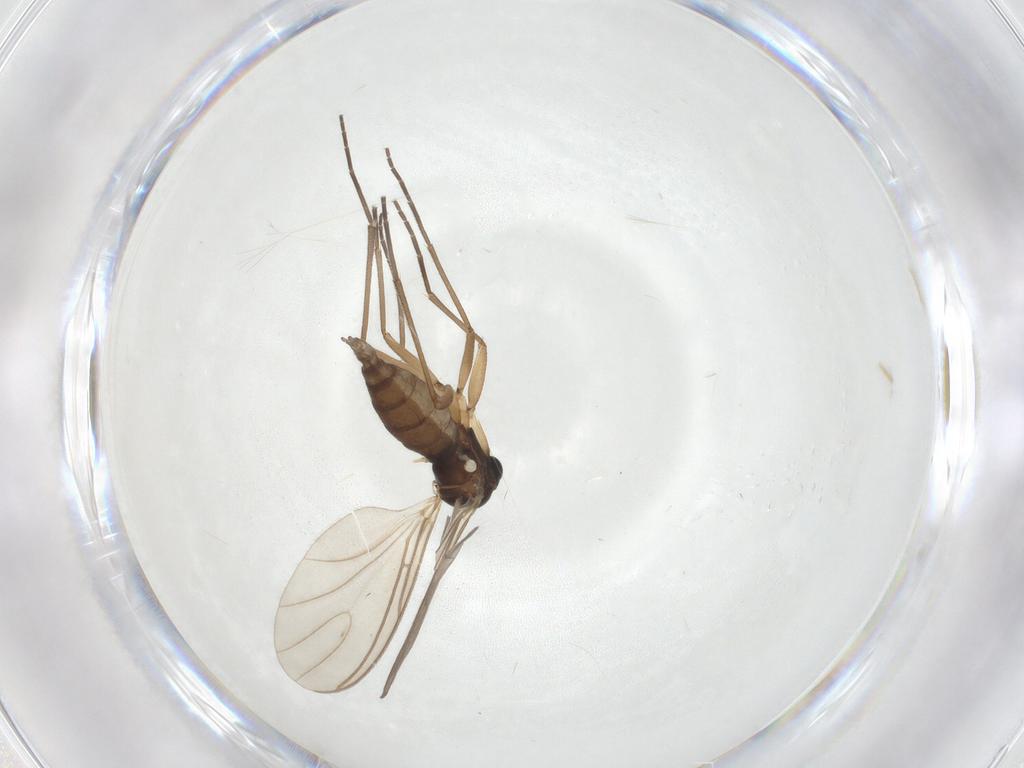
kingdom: Animalia
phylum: Arthropoda
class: Insecta
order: Diptera
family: Sciaridae
